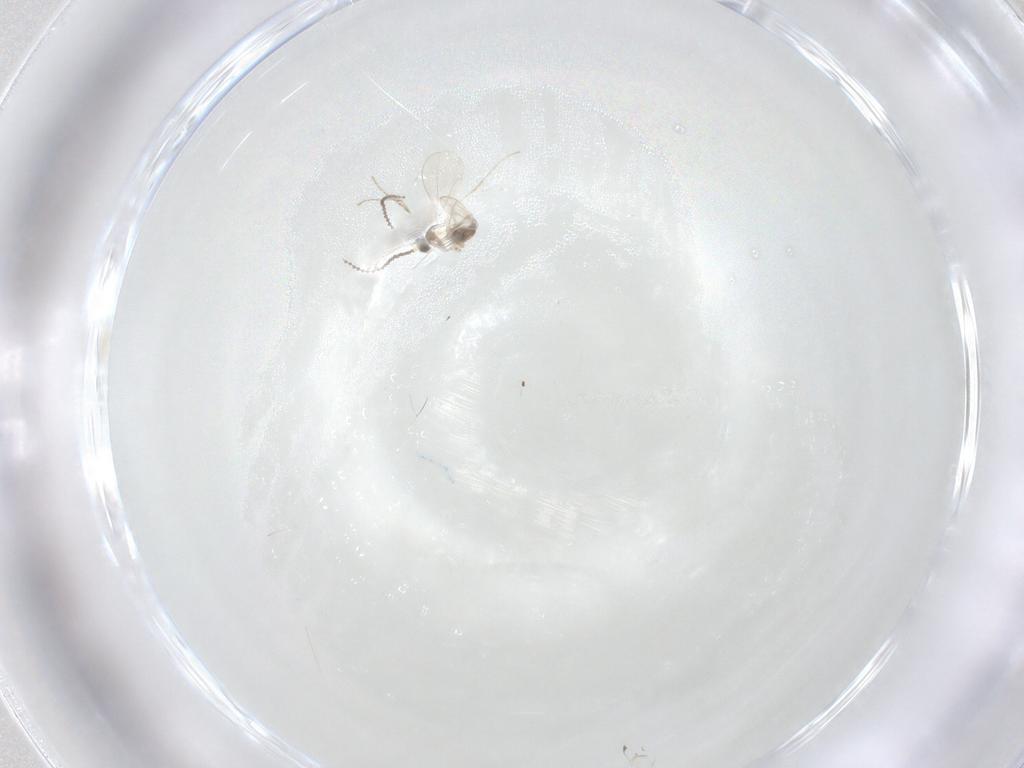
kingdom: Animalia
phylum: Arthropoda
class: Insecta
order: Diptera
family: Cecidomyiidae
